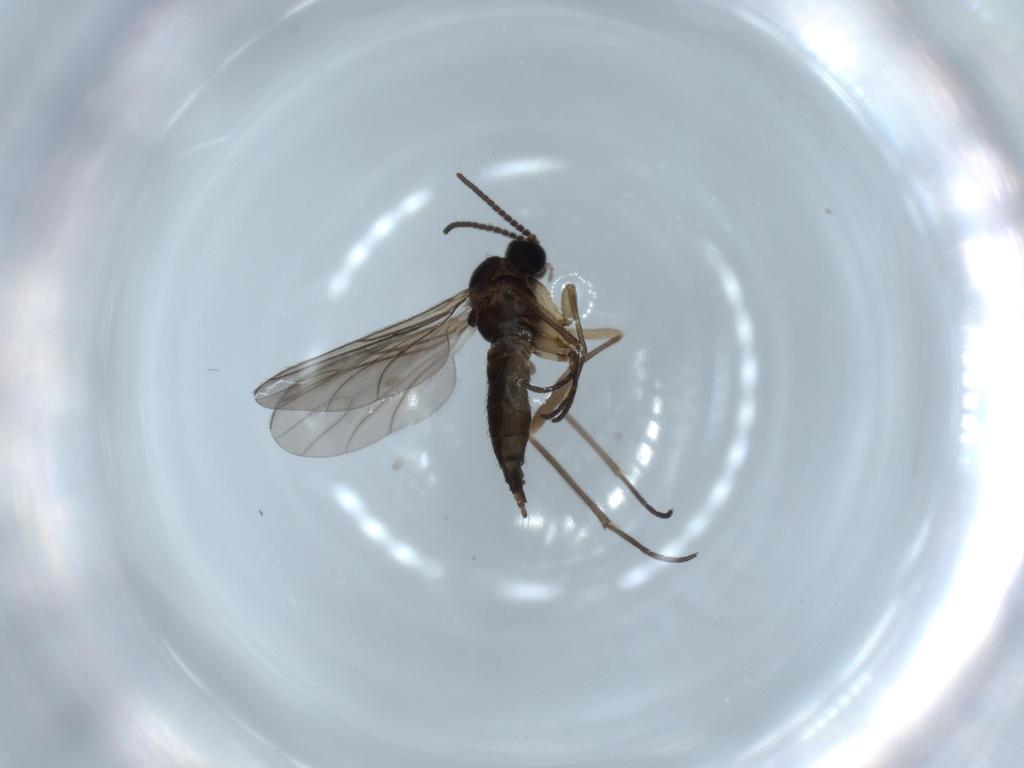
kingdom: Animalia
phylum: Arthropoda
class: Insecta
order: Diptera
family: Sciaridae
